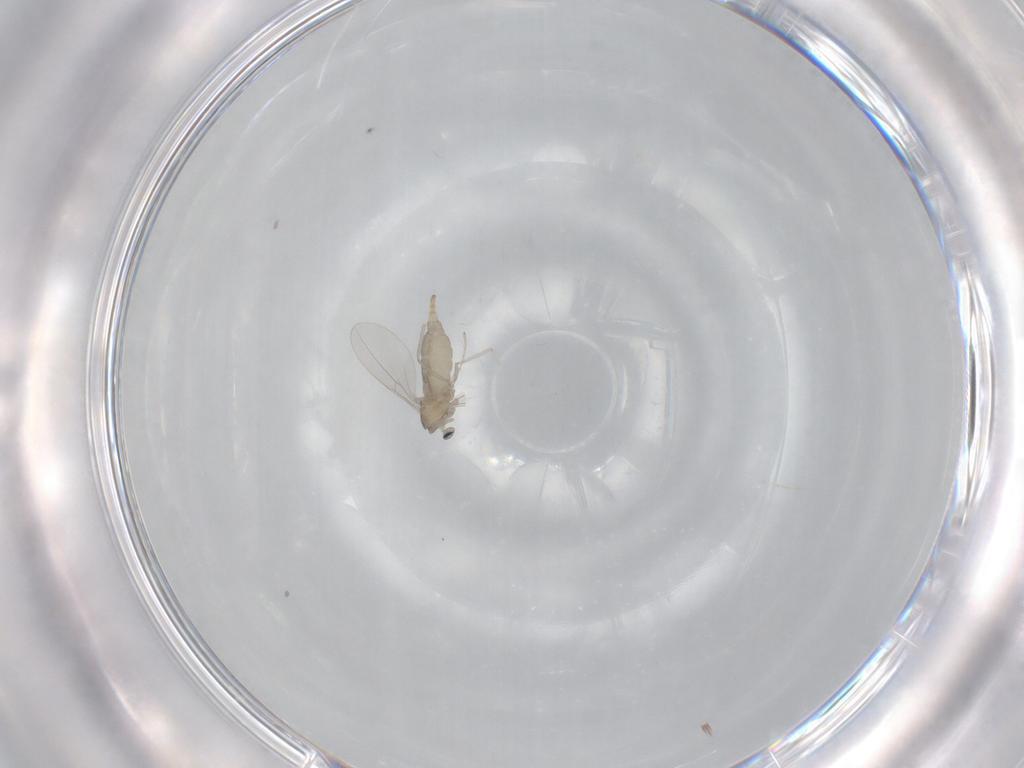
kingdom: Animalia
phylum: Arthropoda
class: Insecta
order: Diptera
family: Cecidomyiidae
